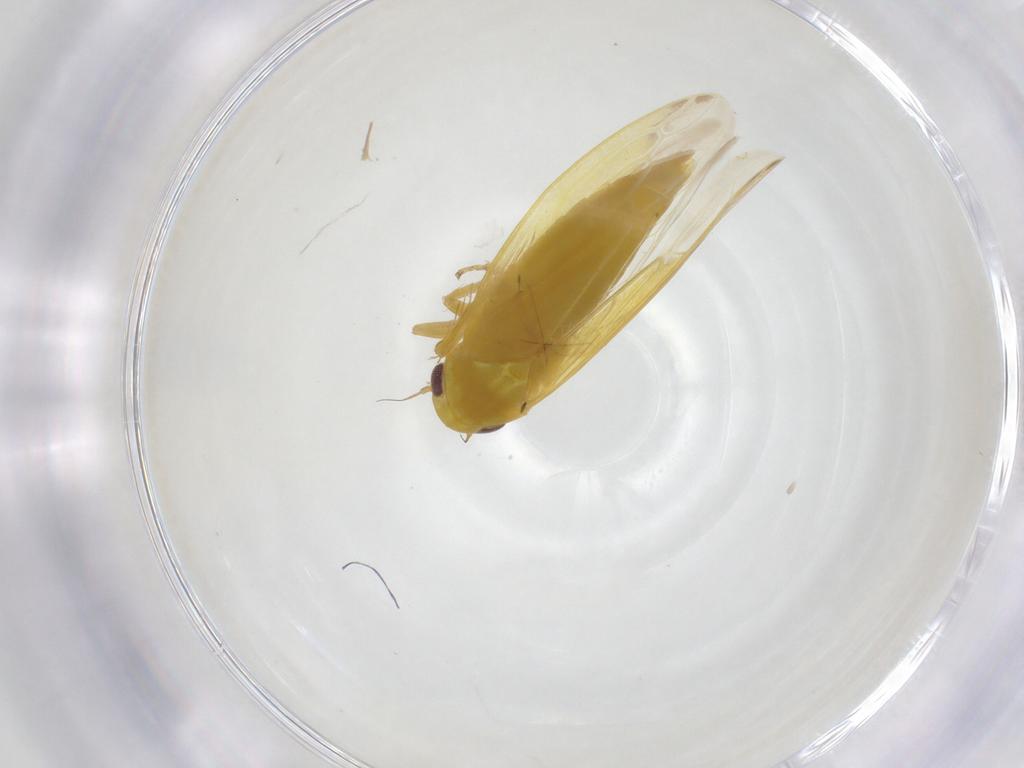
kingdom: Animalia
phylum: Arthropoda
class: Insecta
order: Hemiptera
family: Cicadellidae
